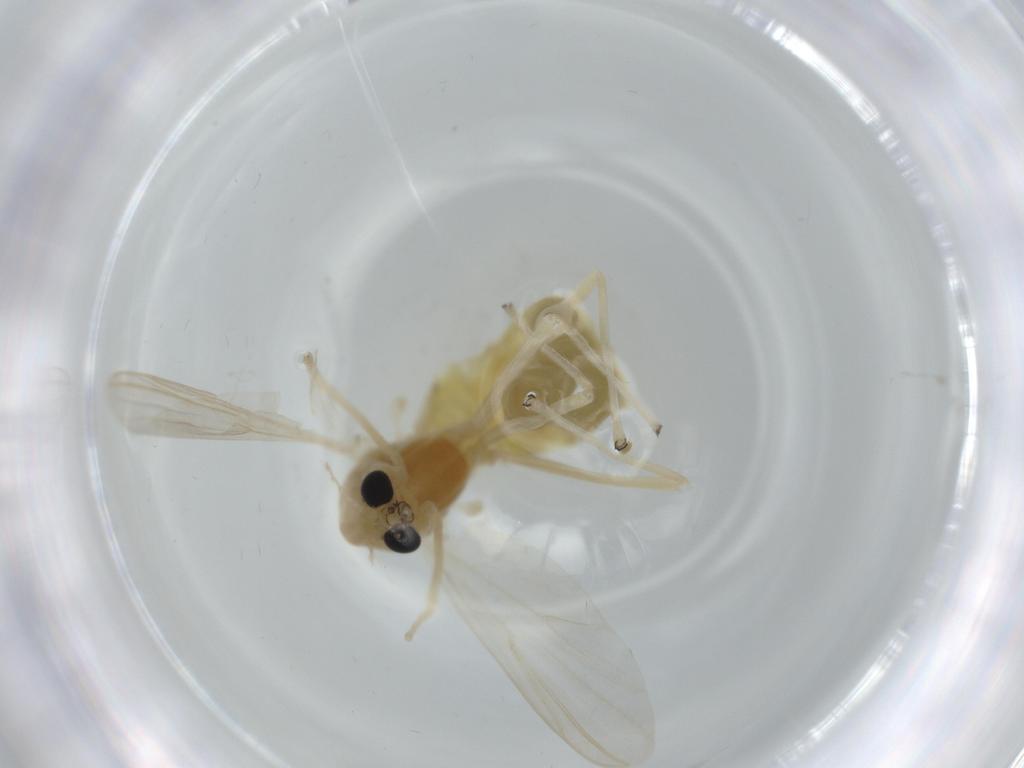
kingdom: Animalia
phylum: Arthropoda
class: Insecta
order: Diptera
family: Chironomidae
